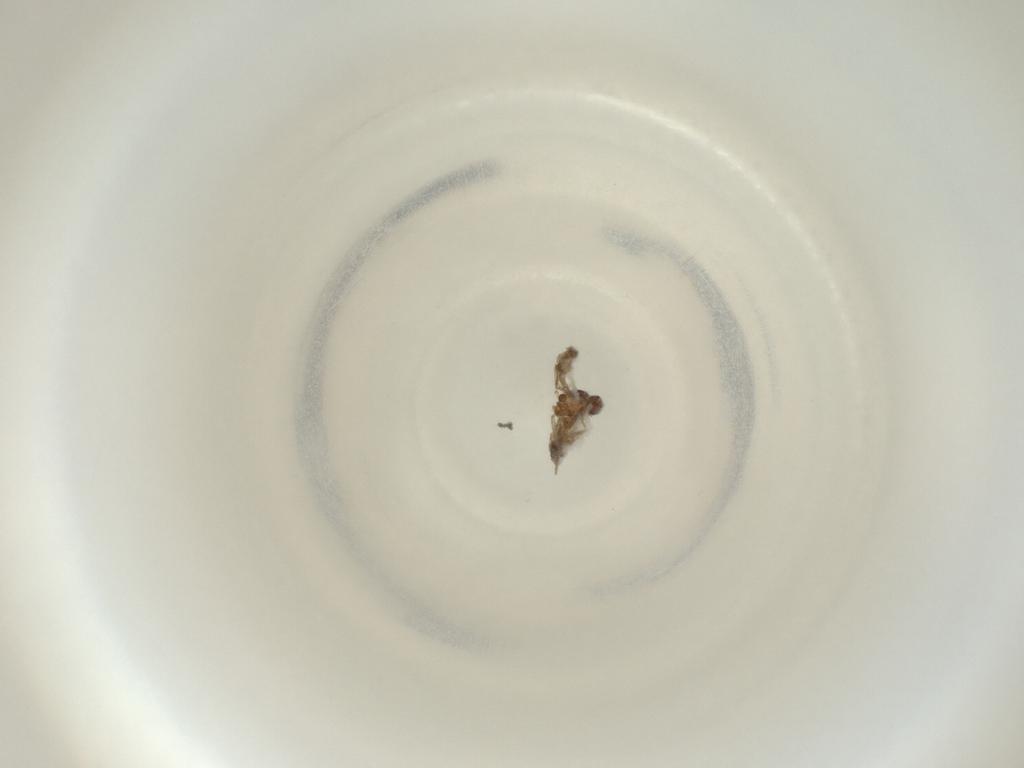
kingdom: Animalia
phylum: Arthropoda
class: Insecta
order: Diptera
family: Cecidomyiidae
